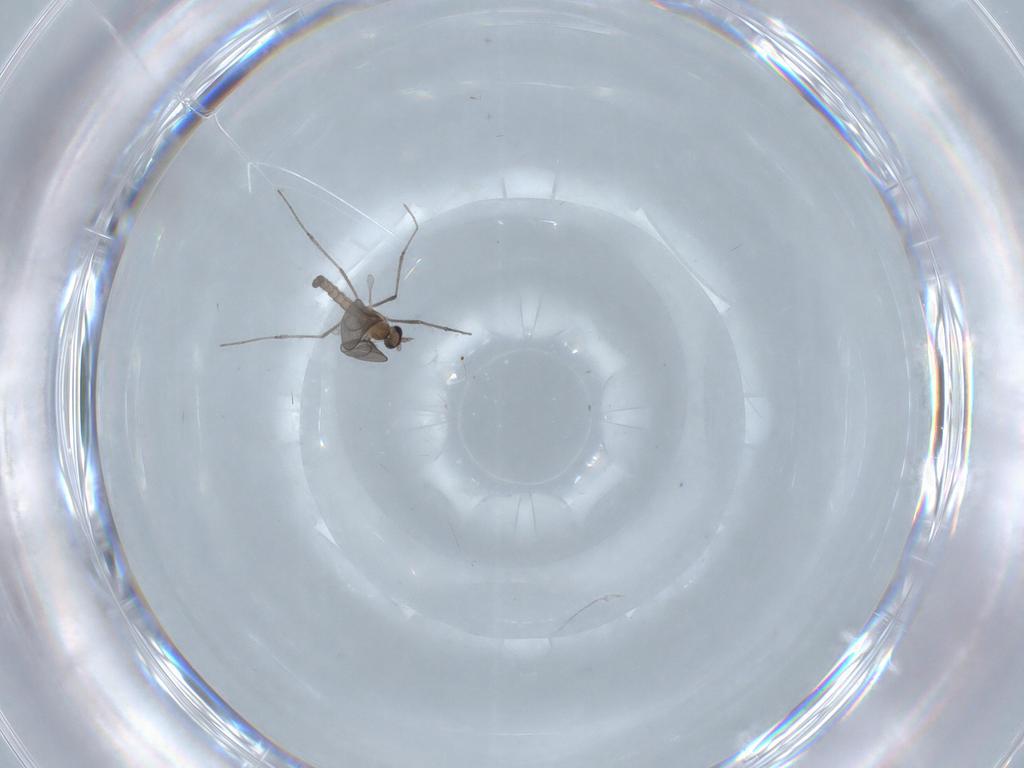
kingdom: Animalia
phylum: Arthropoda
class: Insecta
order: Diptera
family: Cecidomyiidae
